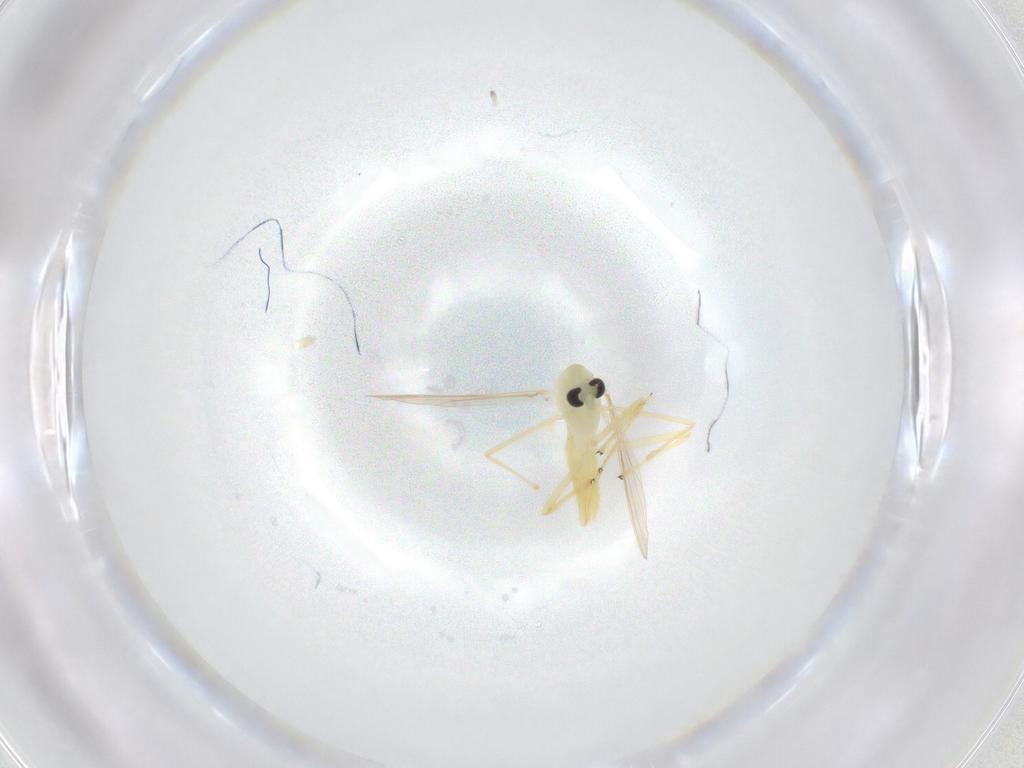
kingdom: Animalia
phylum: Arthropoda
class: Insecta
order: Diptera
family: Chironomidae
